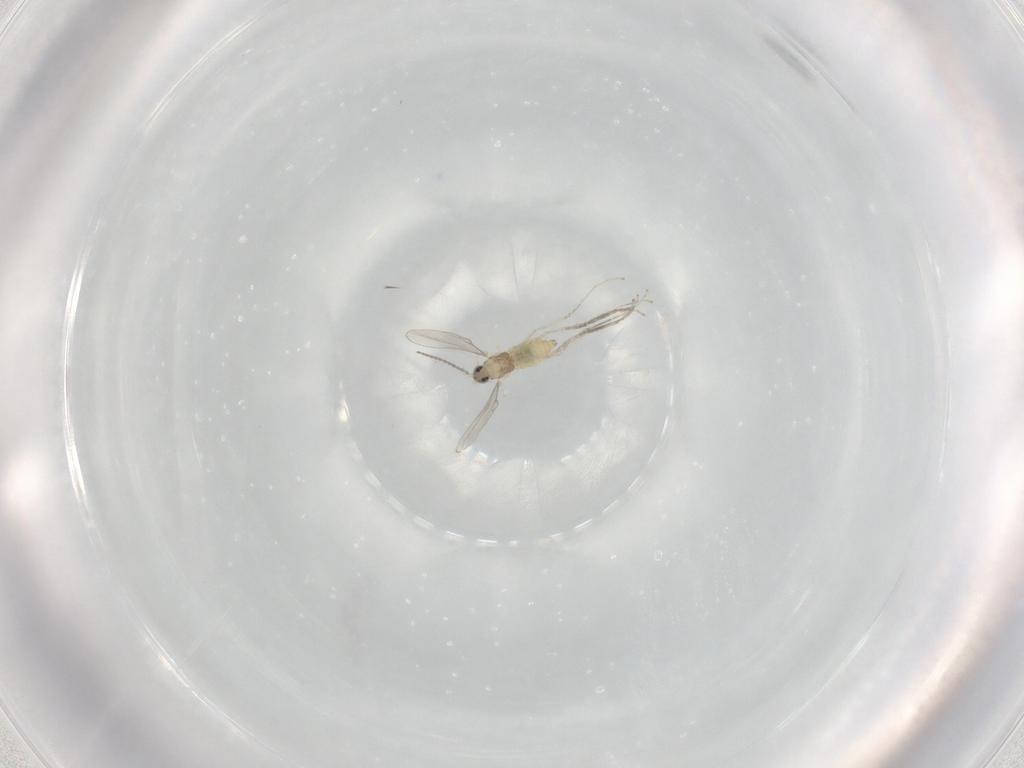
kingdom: Animalia
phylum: Arthropoda
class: Insecta
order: Diptera
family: Cecidomyiidae
